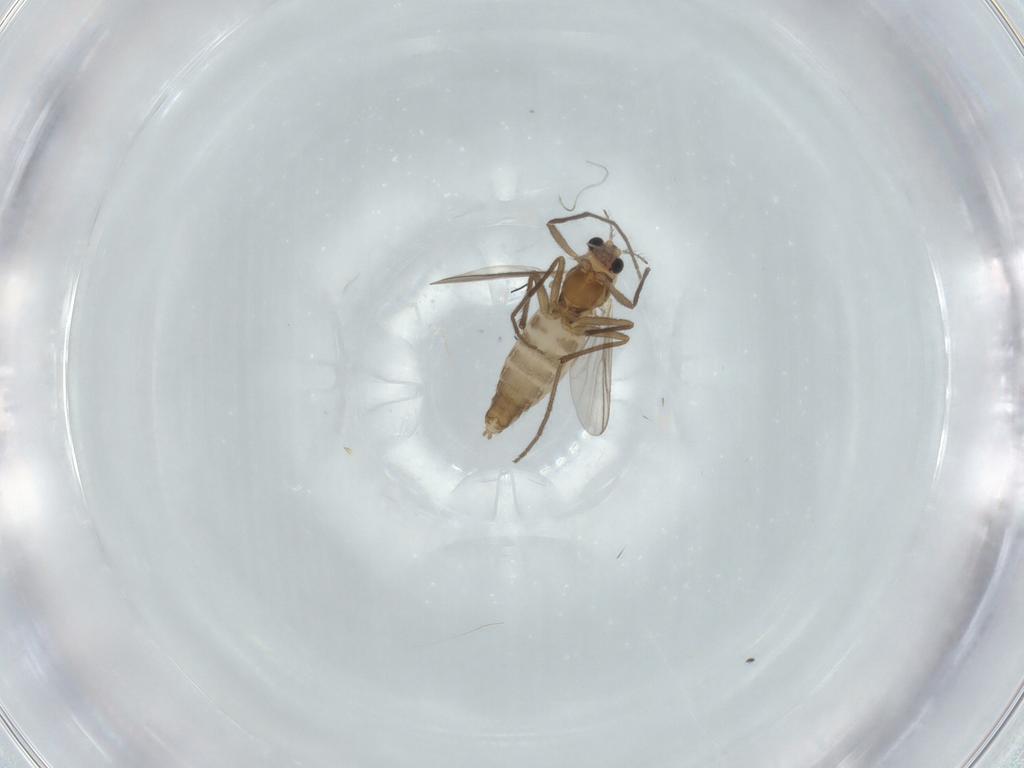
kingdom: Animalia
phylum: Arthropoda
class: Insecta
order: Diptera
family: Chironomidae
